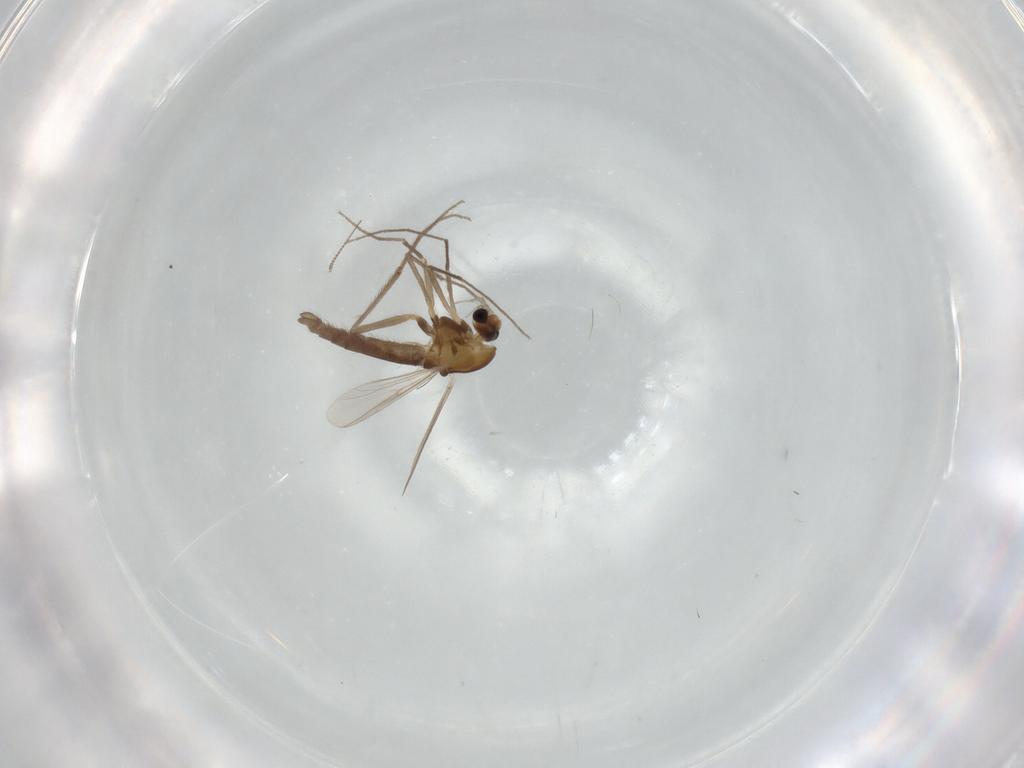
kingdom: Animalia
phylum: Arthropoda
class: Insecta
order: Diptera
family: Chironomidae
